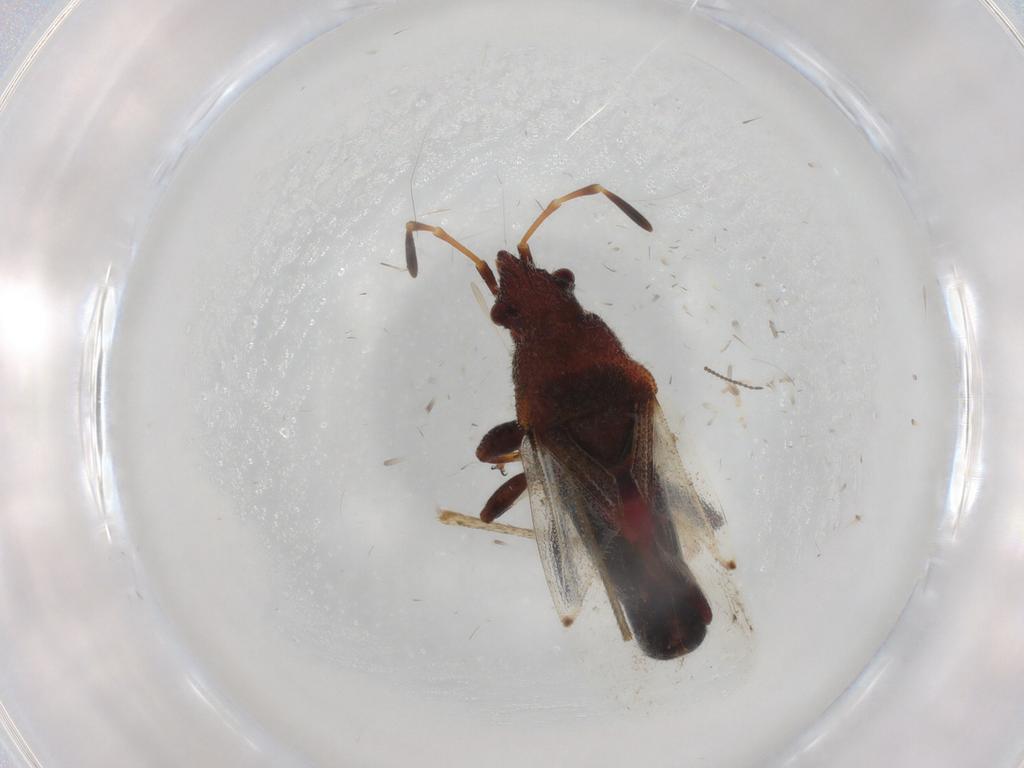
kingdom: Animalia
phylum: Arthropoda
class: Insecta
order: Hemiptera
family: Oxycarenidae
